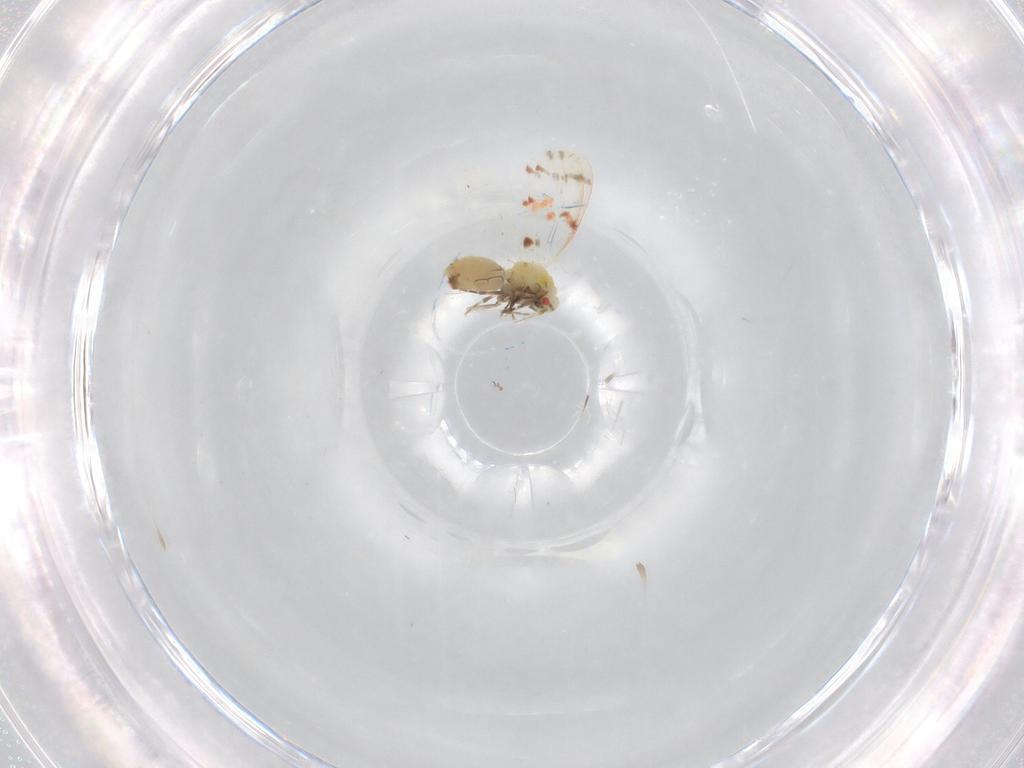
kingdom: Animalia
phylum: Arthropoda
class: Insecta
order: Hemiptera
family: Aleyrodidae
